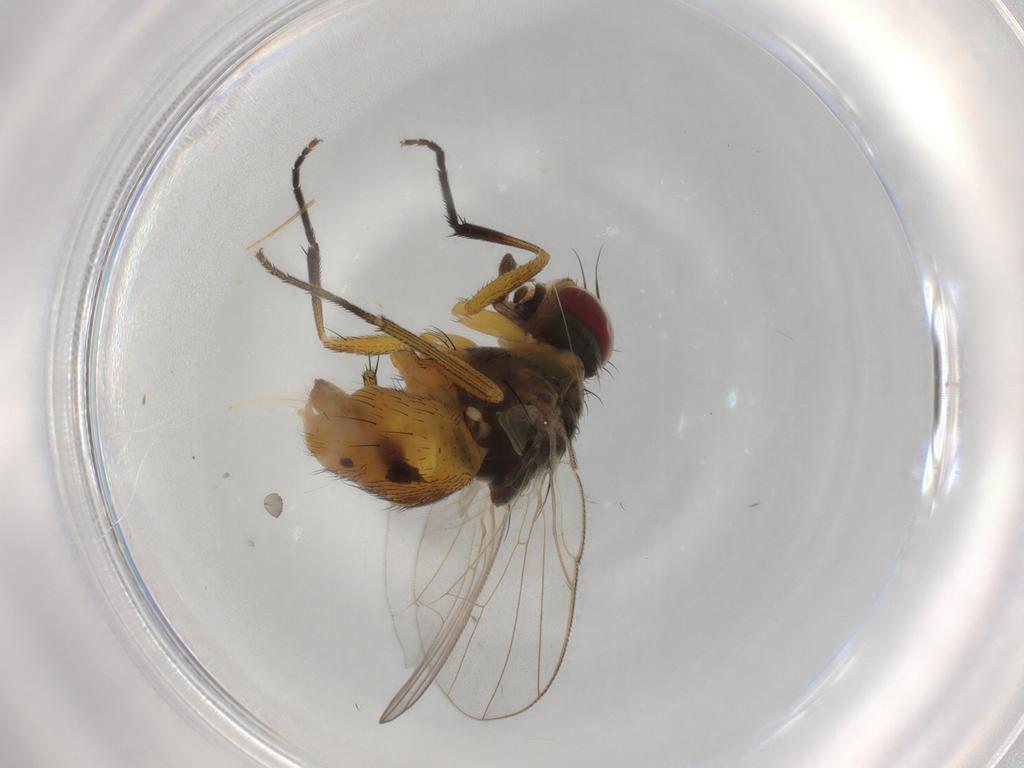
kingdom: Animalia
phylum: Arthropoda
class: Insecta
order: Diptera
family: Muscidae
